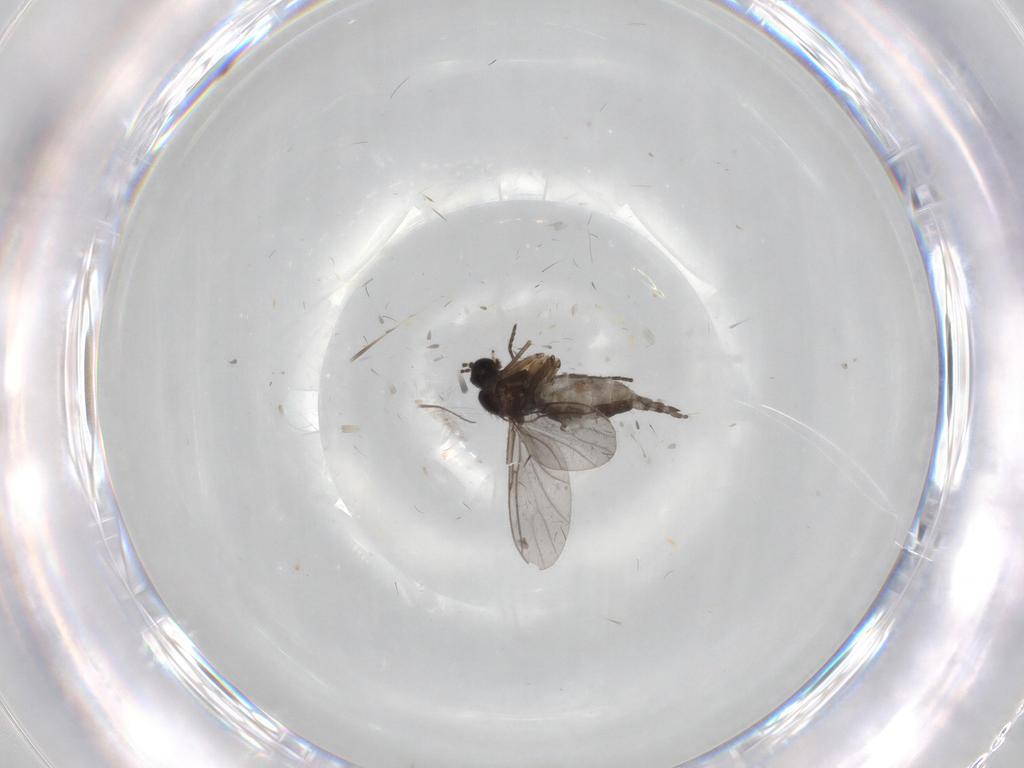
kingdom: Animalia
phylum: Arthropoda
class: Insecta
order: Diptera
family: Sciaridae
